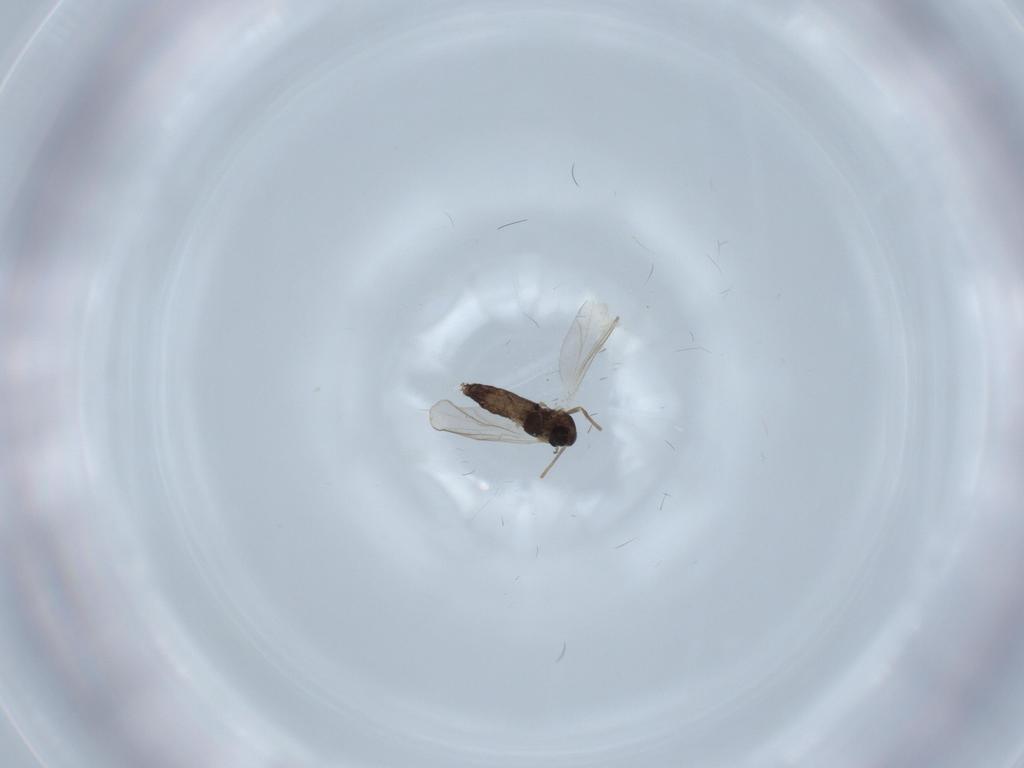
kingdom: Animalia
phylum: Arthropoda
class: Insecta
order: Diptera
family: Chironomidae
